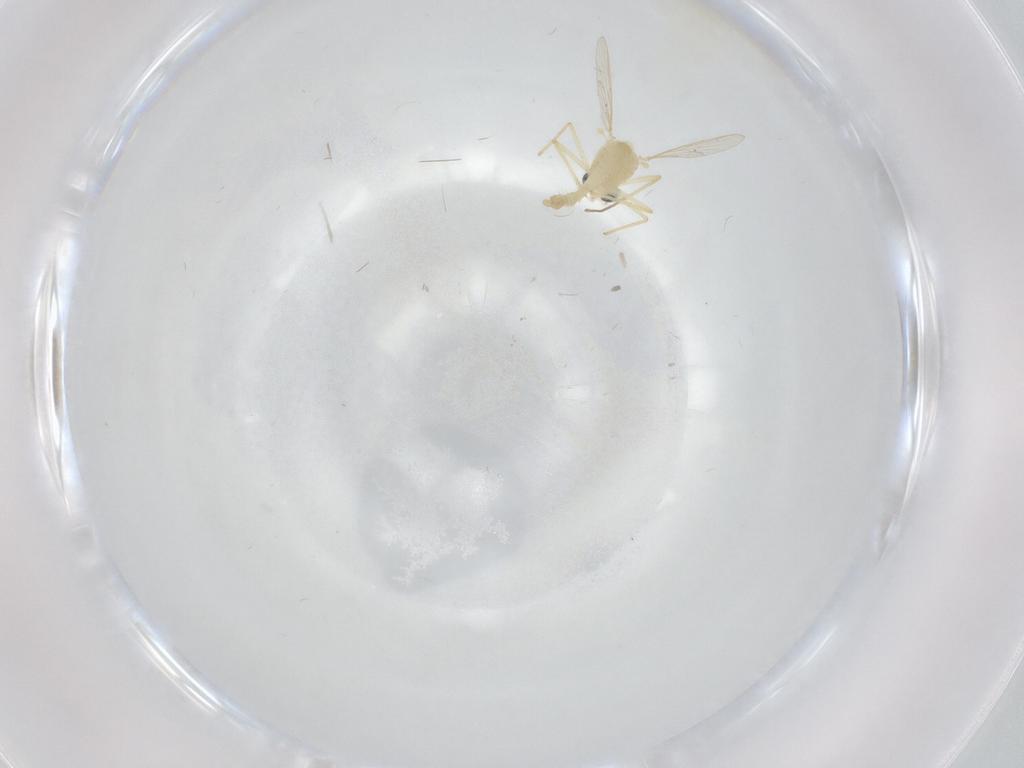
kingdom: Animalia
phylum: Arthropoda
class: Insecta
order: Diptera
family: Chironomidae
